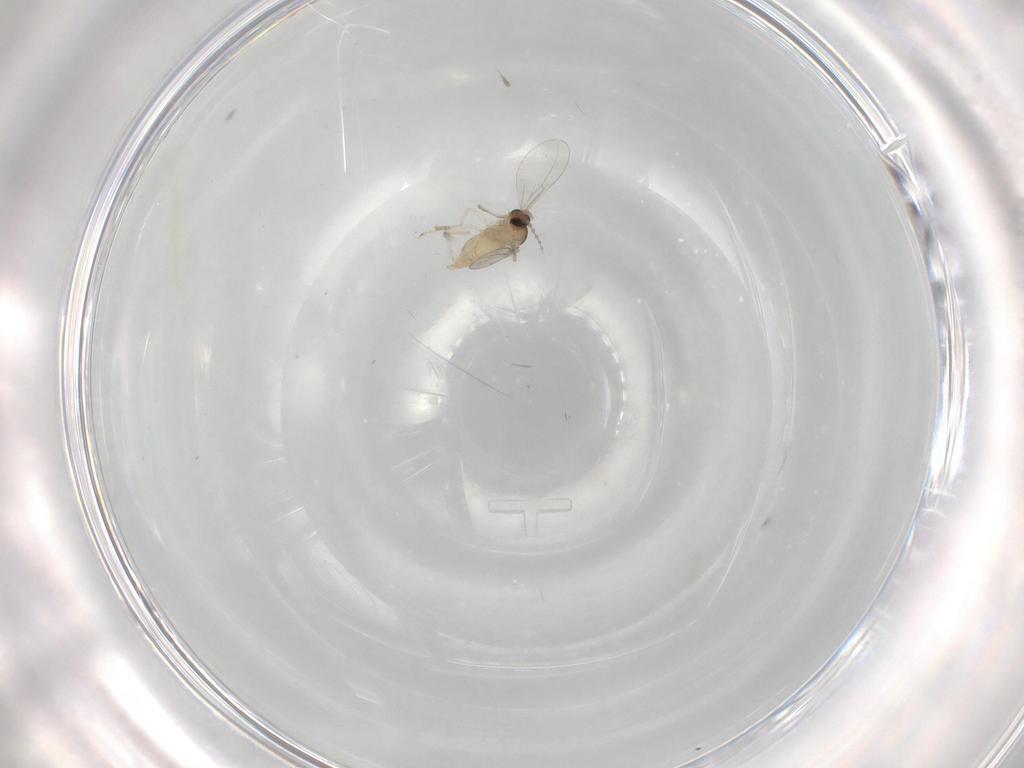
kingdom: Animalia
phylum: Arthropoda
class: Insecta
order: Diptera
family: Cecidomyiidae
